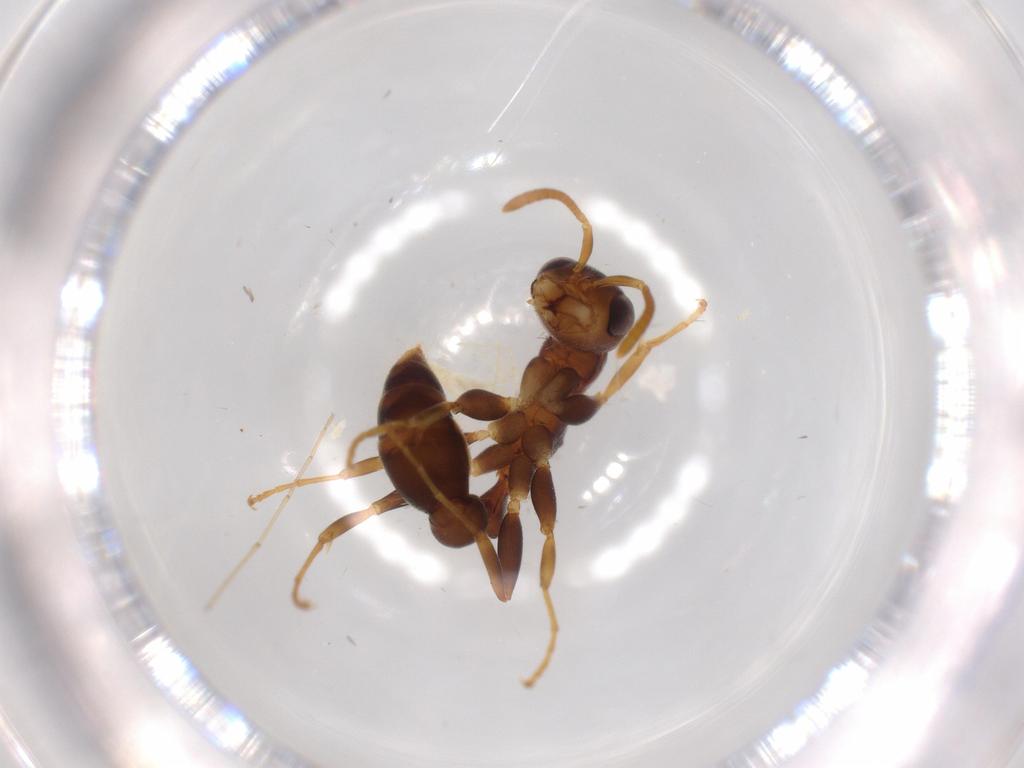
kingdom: Animalia
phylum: Arthropoda
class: Insecta
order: Hymenoptera
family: Formicidae
